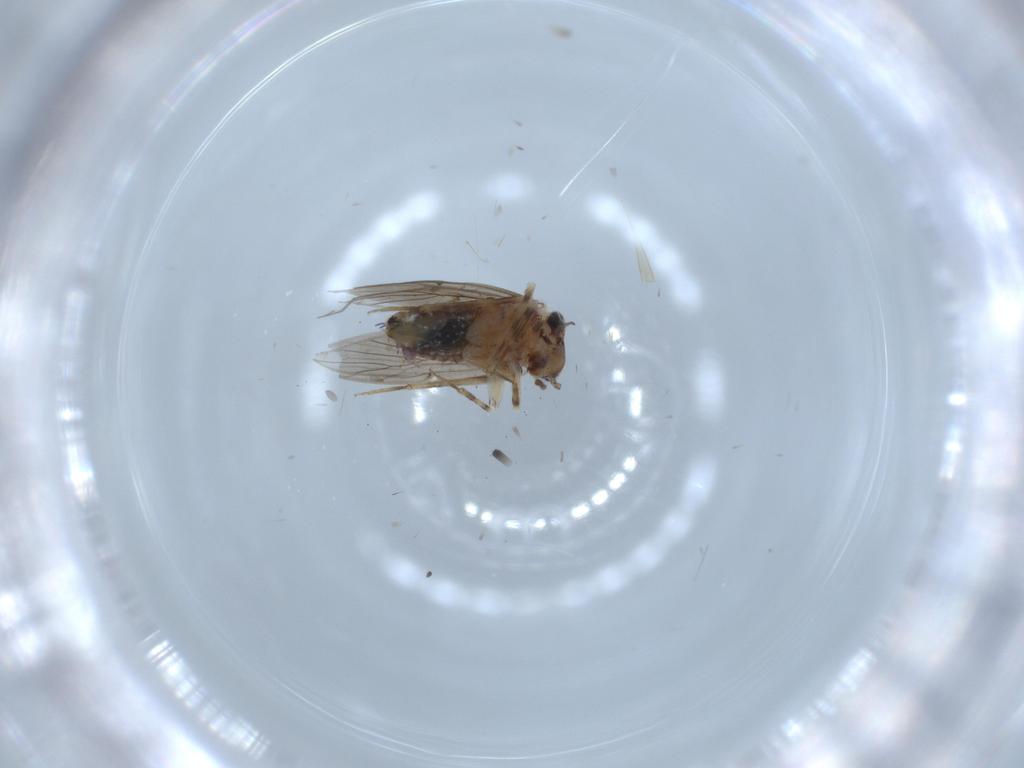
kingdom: Animalia
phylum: Arthropoda
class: Insecta
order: Psocodea
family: Lepidopsocidae
